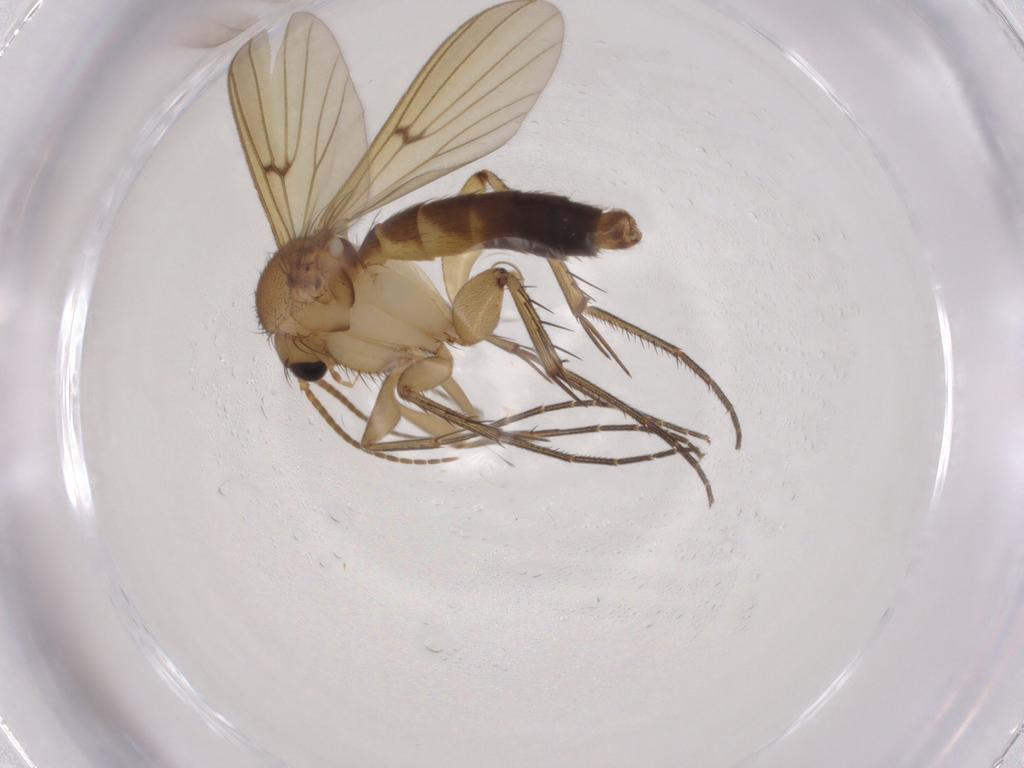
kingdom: Animalia
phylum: Arthropoda
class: Insecta
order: Diptera
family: Mycetophilidae
